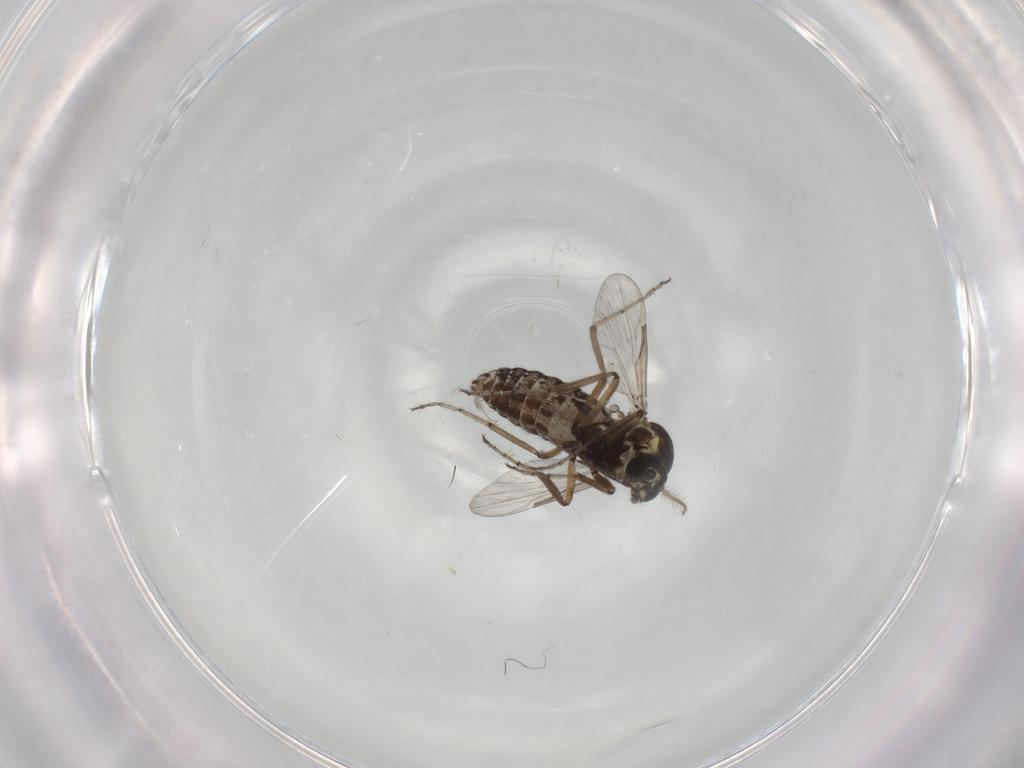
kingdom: Animalia
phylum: Arthropoda
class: Insecta
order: Diptera
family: Ceratopogonidae
